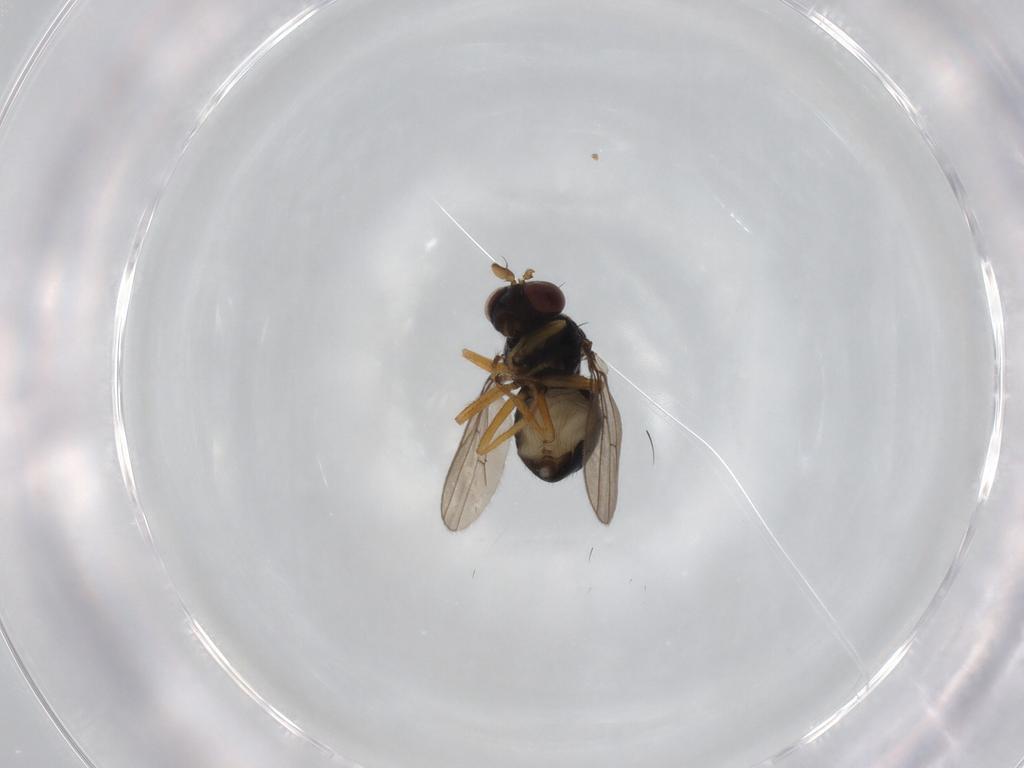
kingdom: Animalia
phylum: Arthropoda
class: Insecta
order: Diptera
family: Ephydridae
